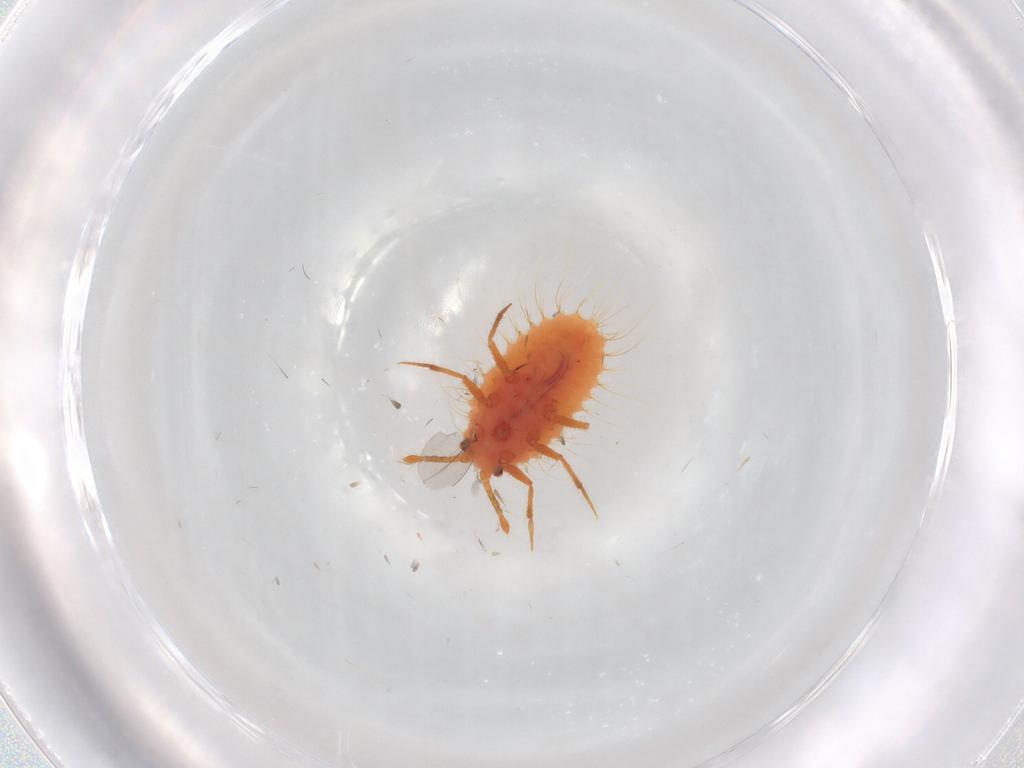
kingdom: Animalia
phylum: Arthropoda
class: Insecta
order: Hemiptera
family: Coccoidea_incertae_sedis
